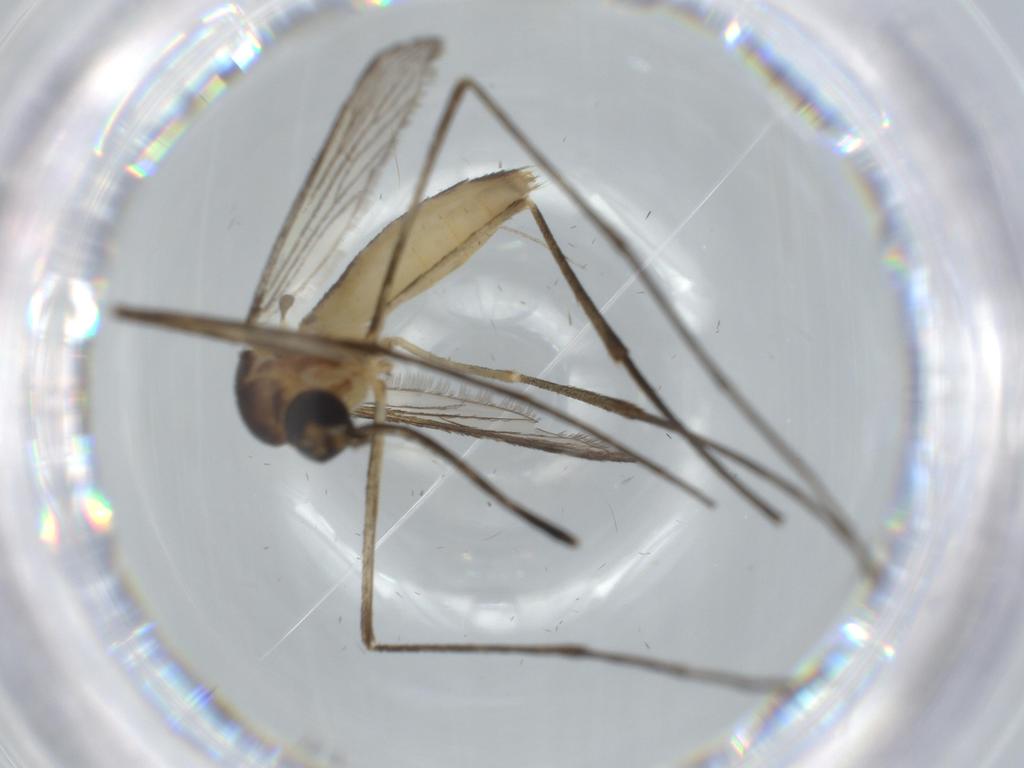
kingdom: Animalia
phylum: Arthropoda
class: Insecta
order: Diptera
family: Cecidomyiidae
